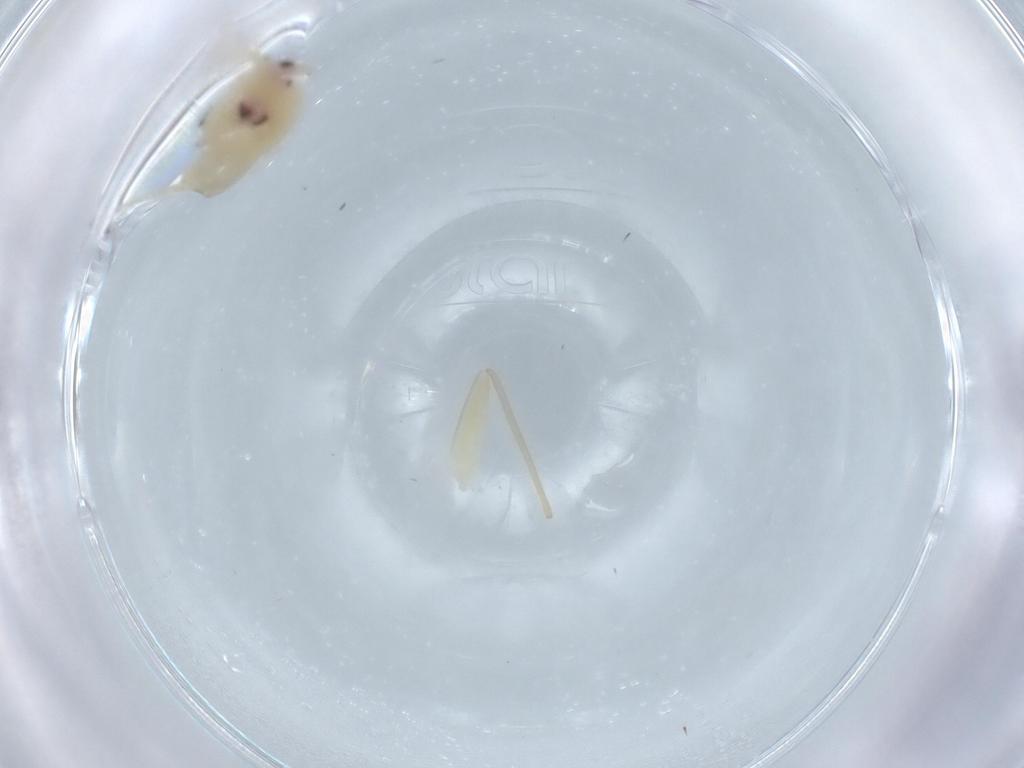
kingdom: Animalia
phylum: Arthropoda
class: Insecta
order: Hemiptera
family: Miridae
